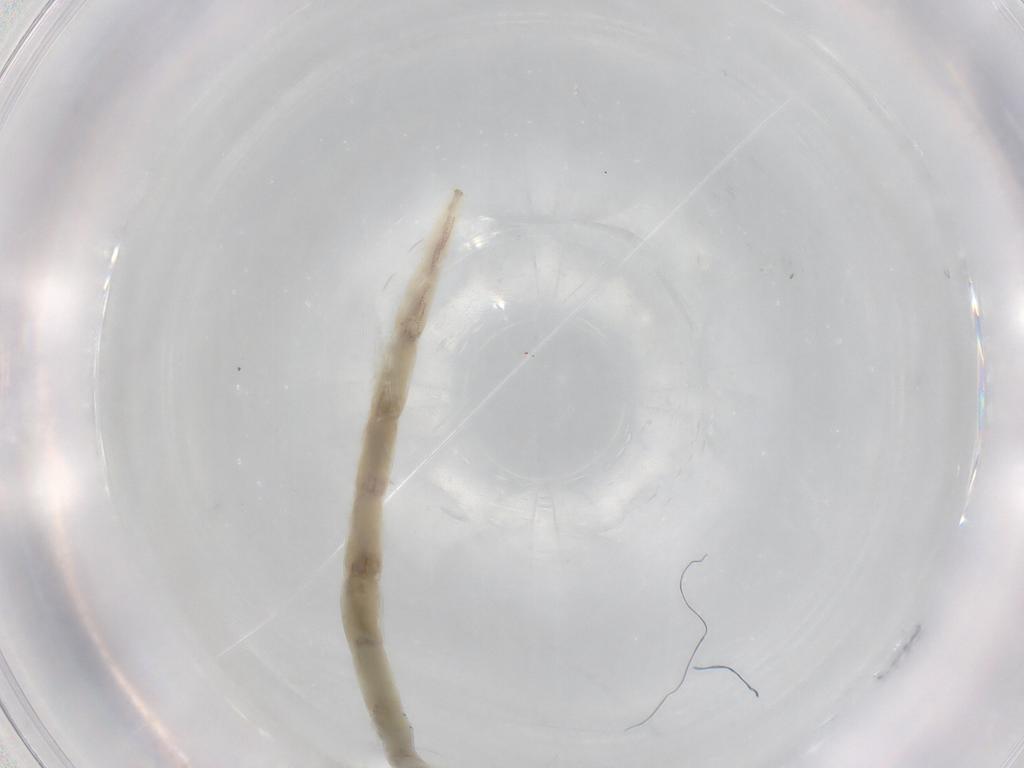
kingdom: Animalia
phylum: Arthropoda
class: Insecta
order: Diptera
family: Ceratopogonidae
